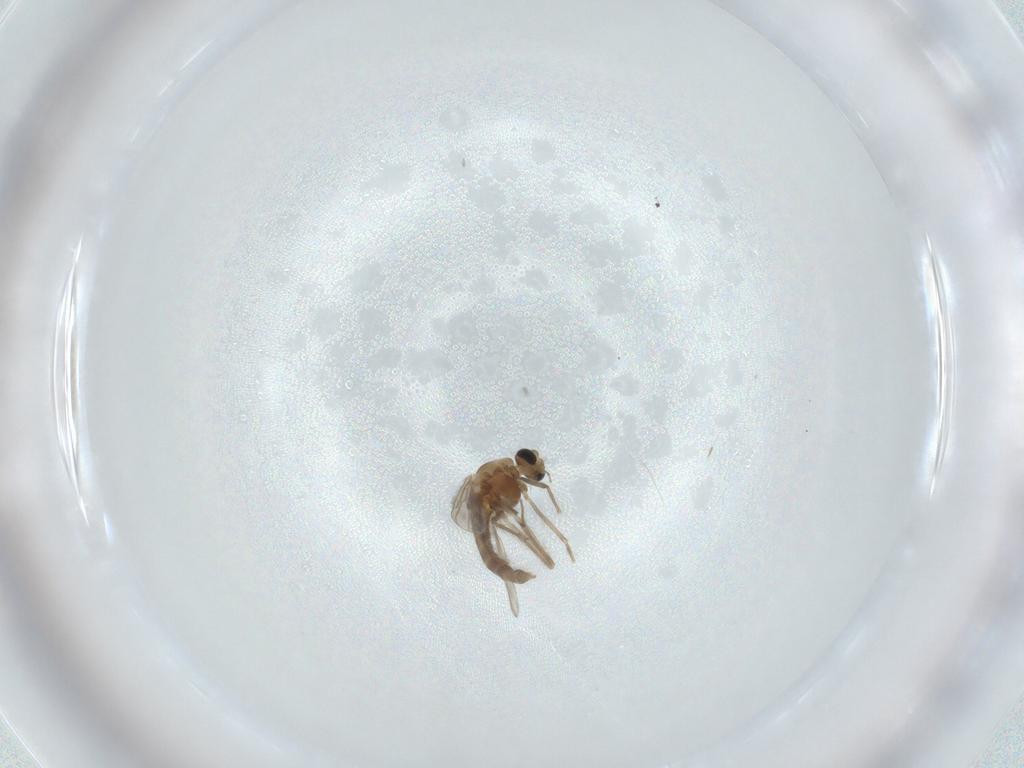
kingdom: Animalia
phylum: Arthropoda
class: Insecta
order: Diptera
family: Chironomidae
